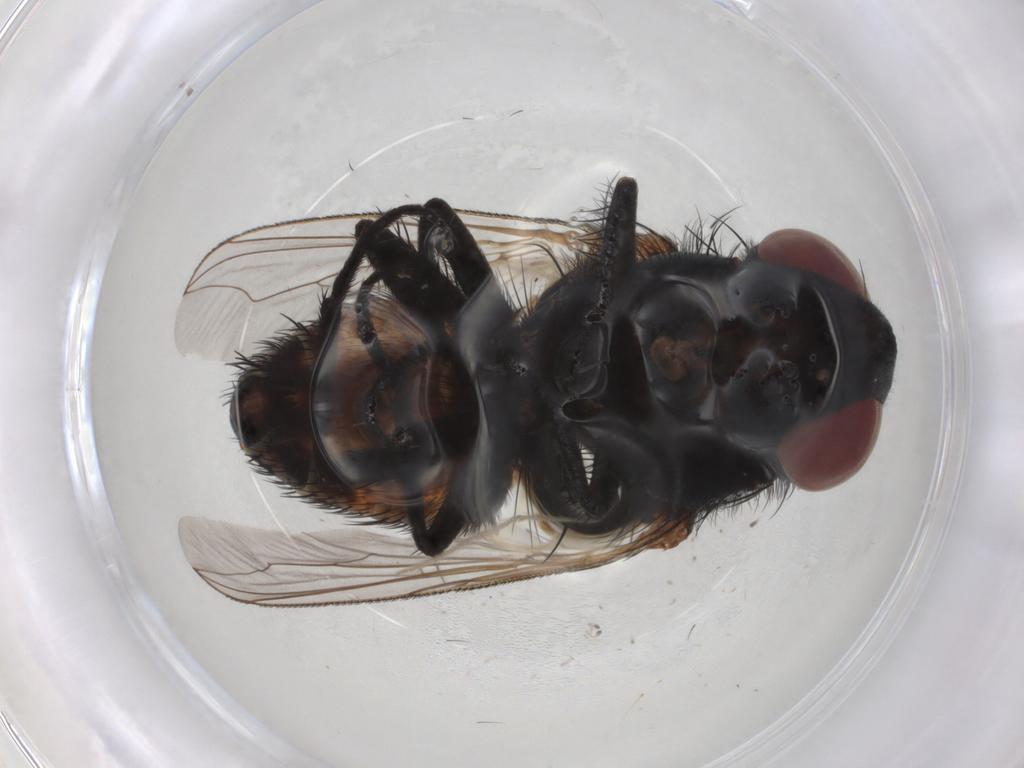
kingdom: Animalia
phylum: Arthropoda
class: Insecta
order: Diptera
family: Sarcophagidae
